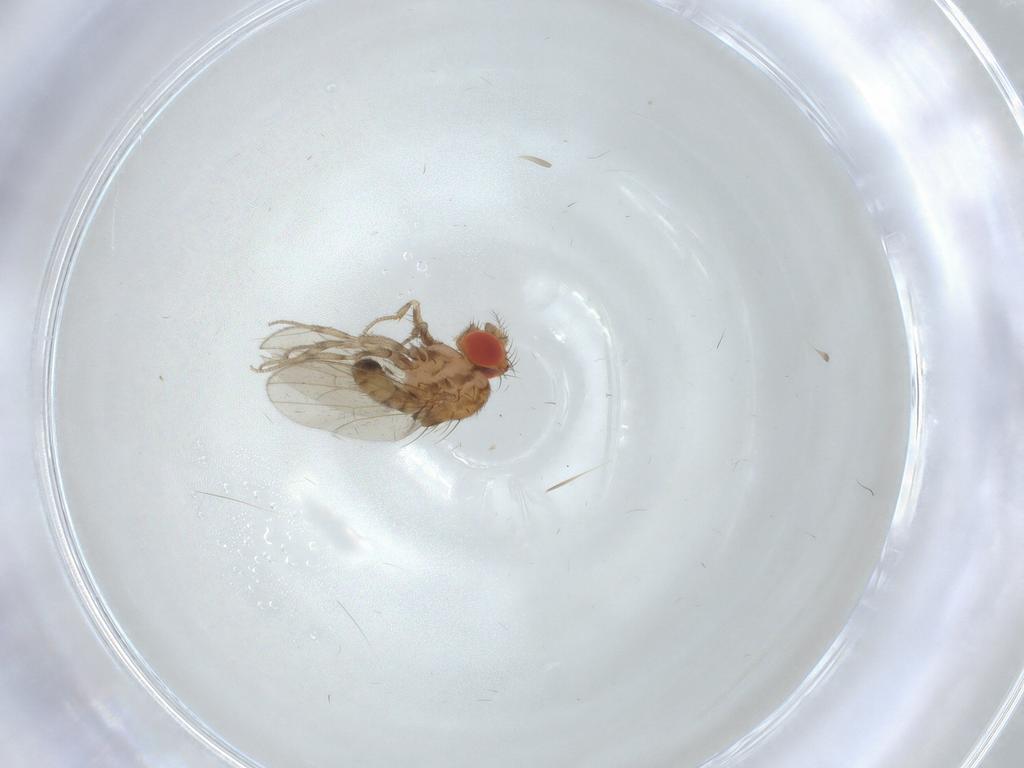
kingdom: Animalia
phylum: Arthropoda
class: Insecta
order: Diptera
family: Drosophilidae
